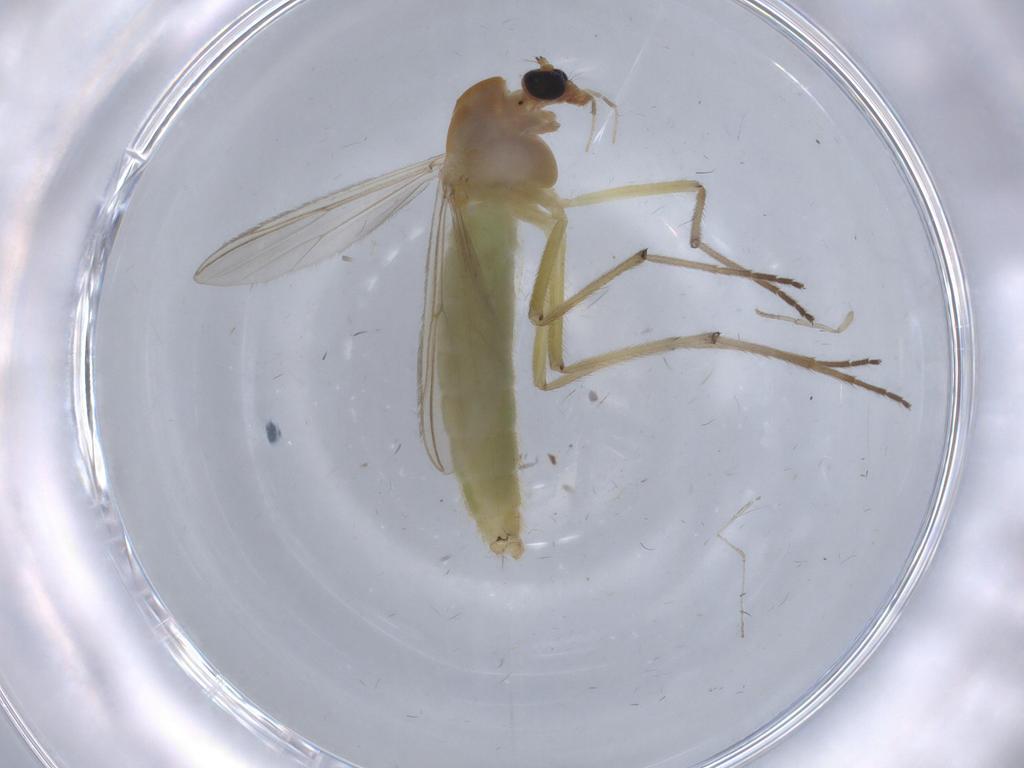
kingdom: Animalia
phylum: Arthropoda
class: Insecta
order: Diptera
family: Chironomidae
